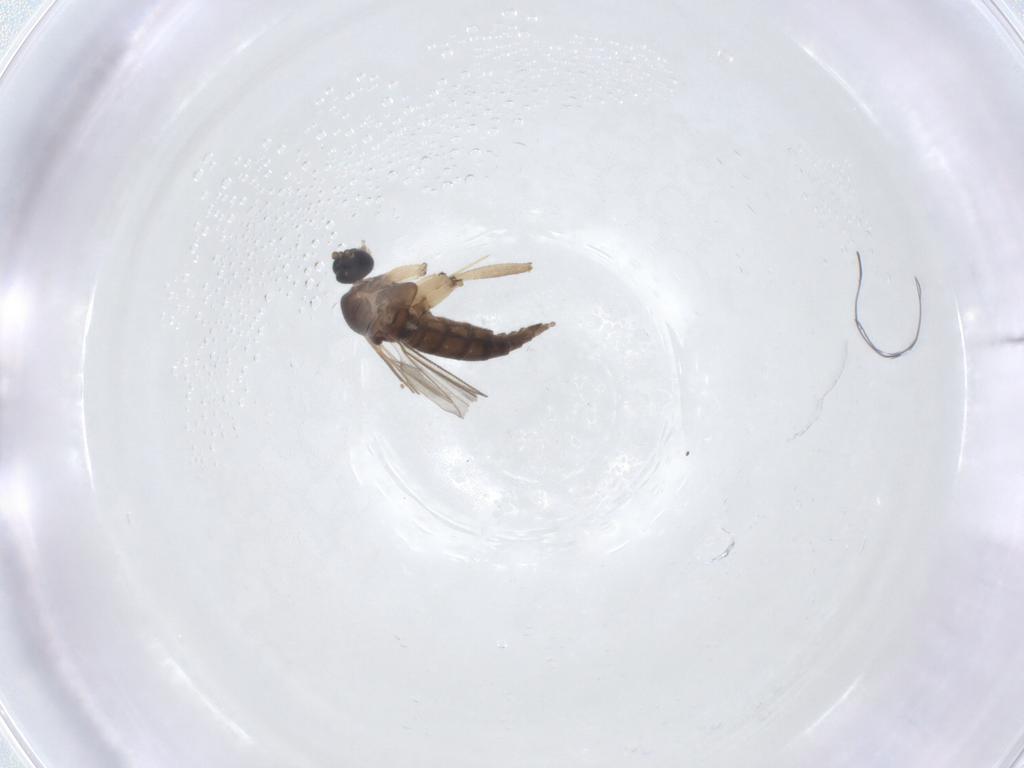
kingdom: Animalia
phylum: Arthropoda
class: Insecta
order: Diptera
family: Sciaridae
